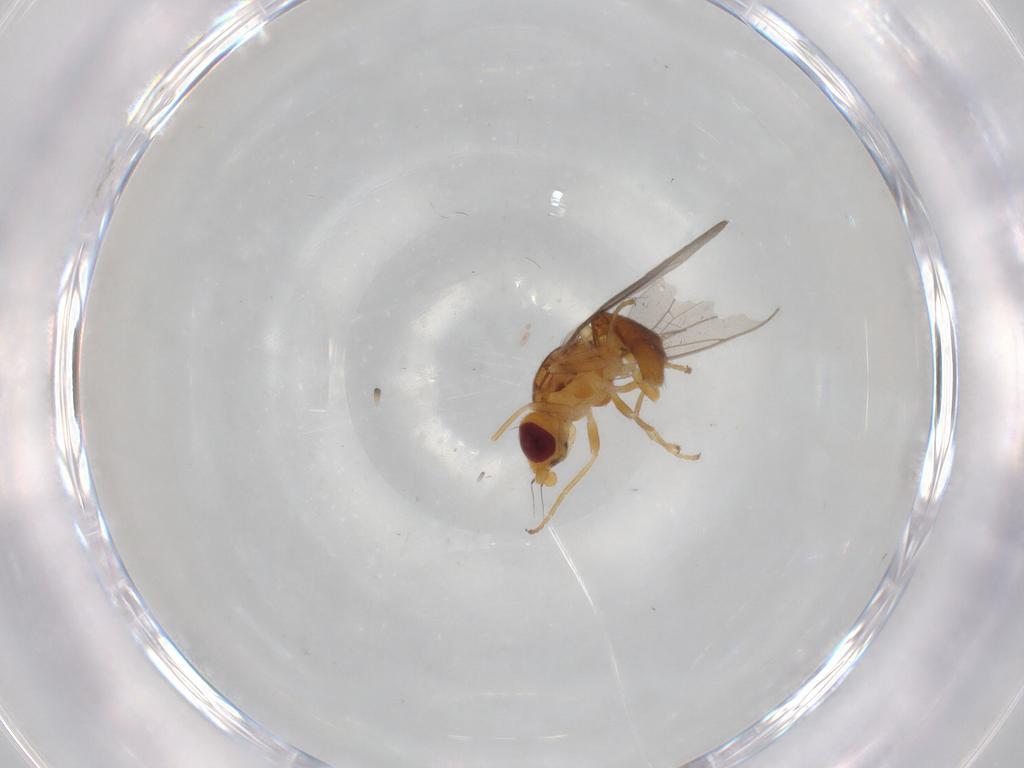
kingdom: Animalia
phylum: Arthropoda
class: Insecta
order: Diptera
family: Chloropidae
